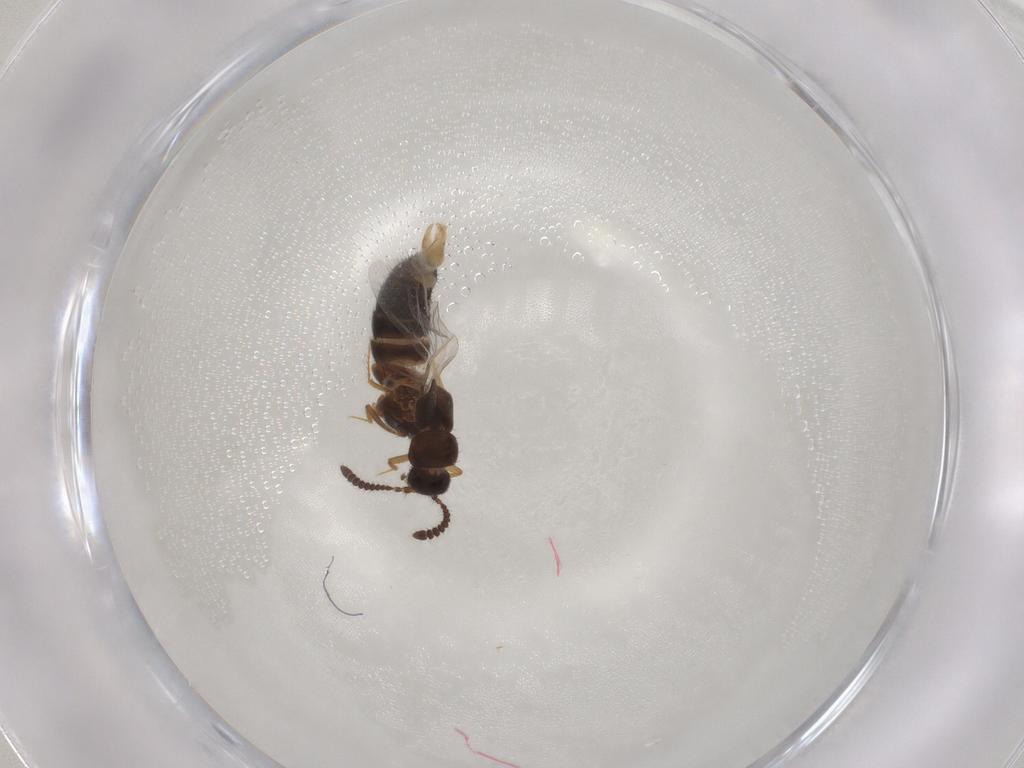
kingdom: Animalia
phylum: Arthropoda
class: Insecta
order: Coleoptera
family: Staphylinidae
